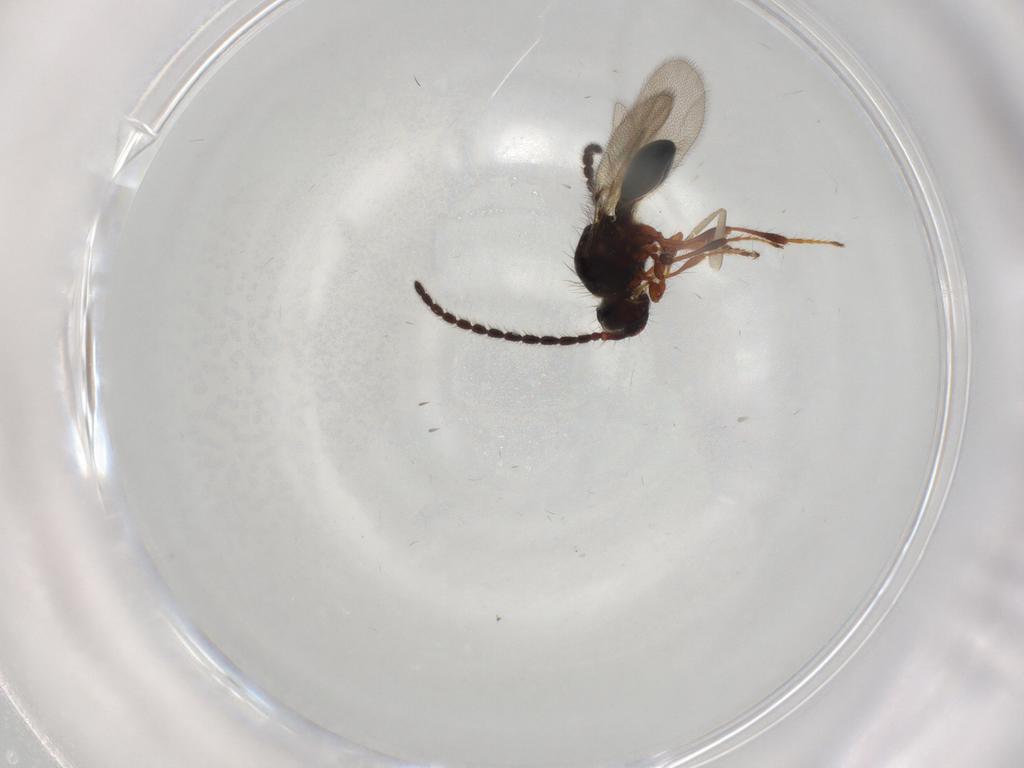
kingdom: Animalia
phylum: Arthropoda
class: Insecta
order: Hymenoptera
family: Diapriidae
